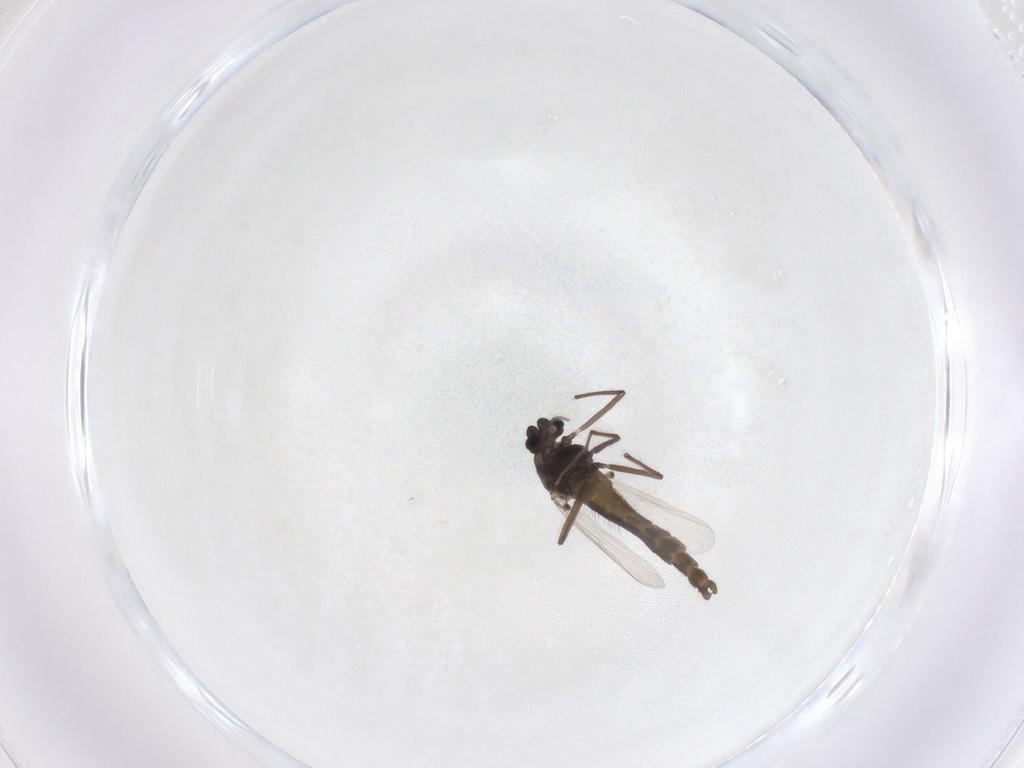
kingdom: Animalia
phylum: Arthropoda
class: Insecta
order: Diptera
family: Chironomidae
